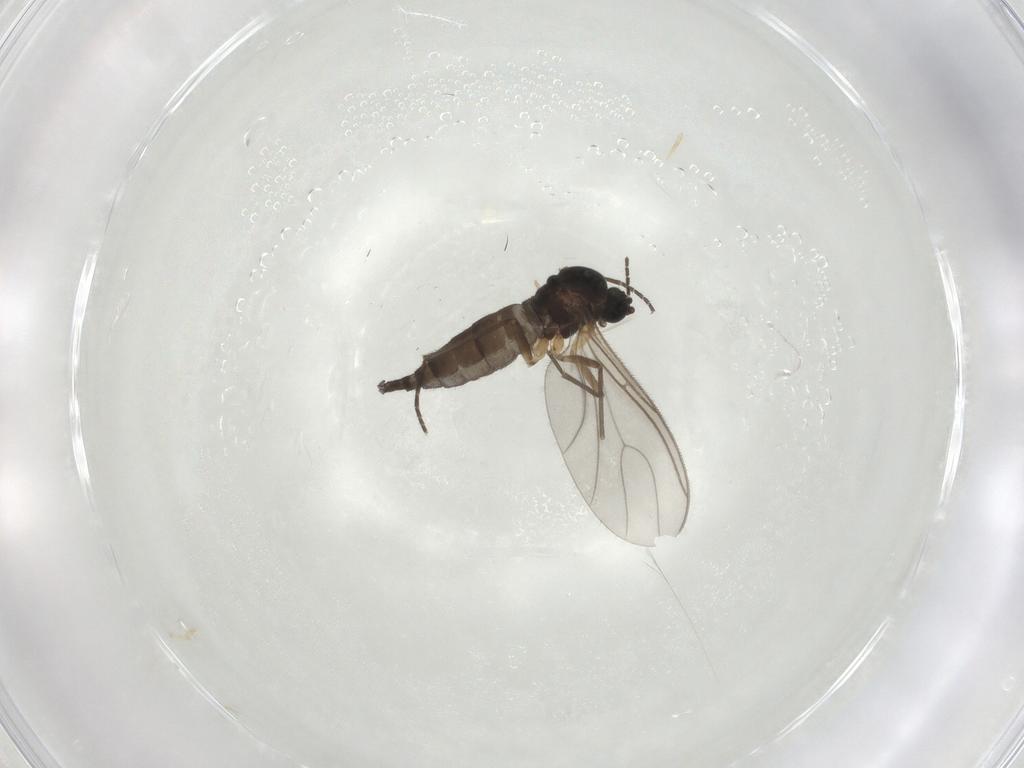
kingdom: Animalia
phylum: Arthropoda
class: Insecta
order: Diptera
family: Sciaridae
